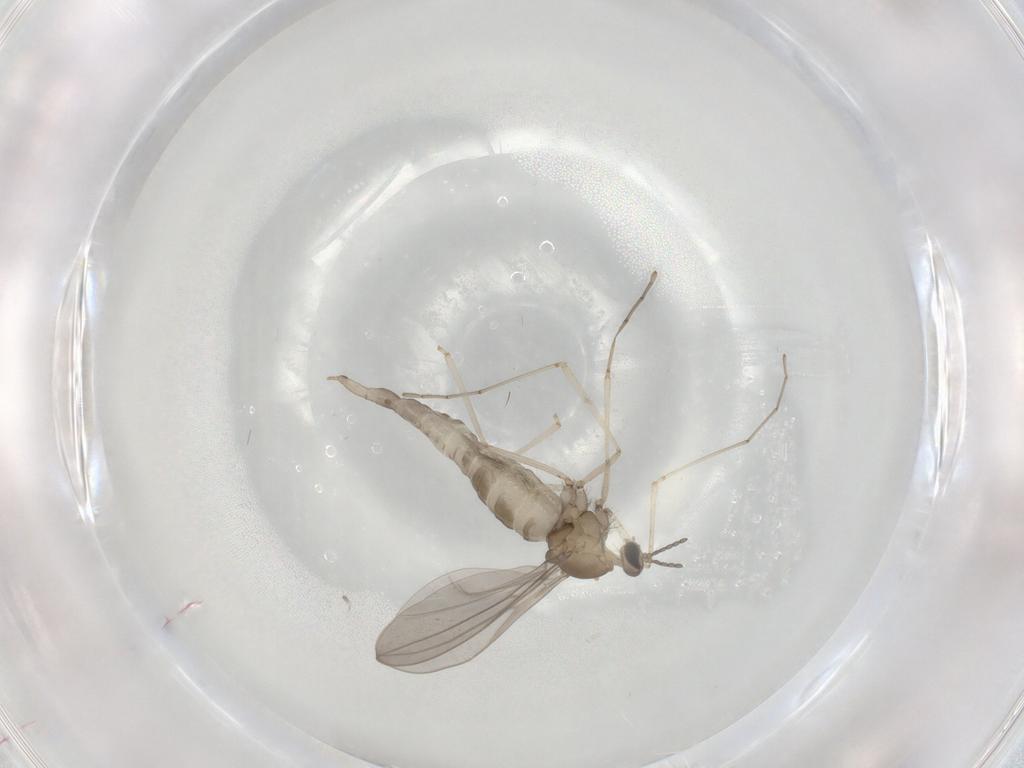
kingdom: Animalia
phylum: Arthropoda
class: Insecta
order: Diptera
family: Cecidomyiidae
